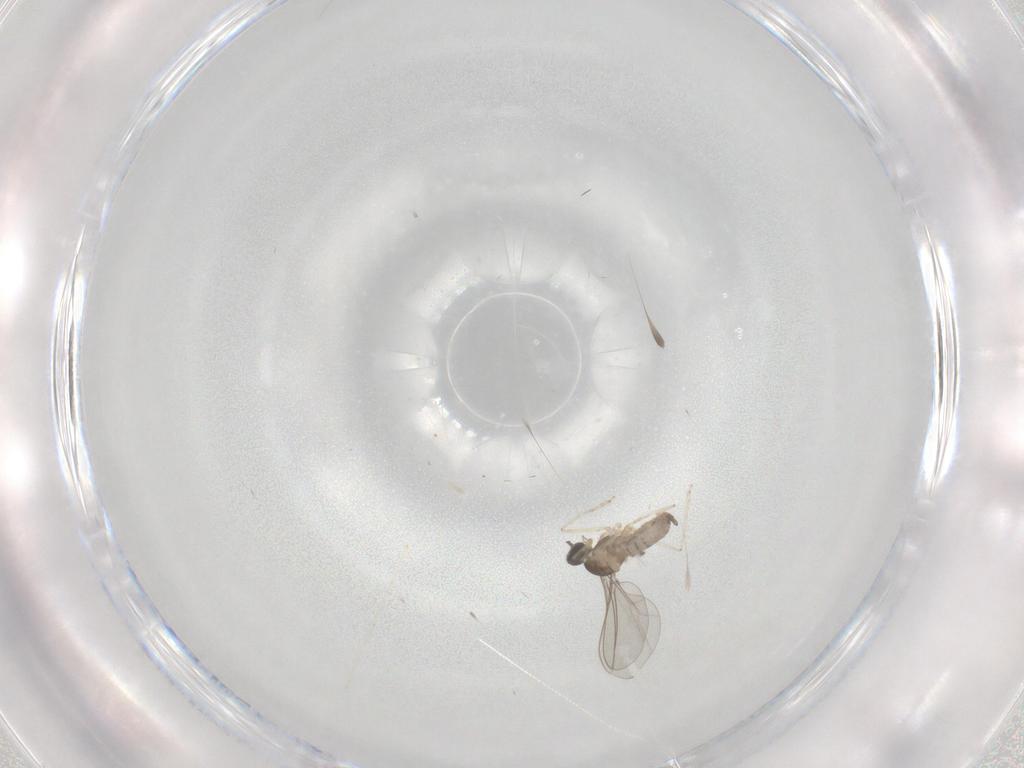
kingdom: Animalia
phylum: Arthropoda
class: Insecta
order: Diptera
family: Cecidomyiidae
